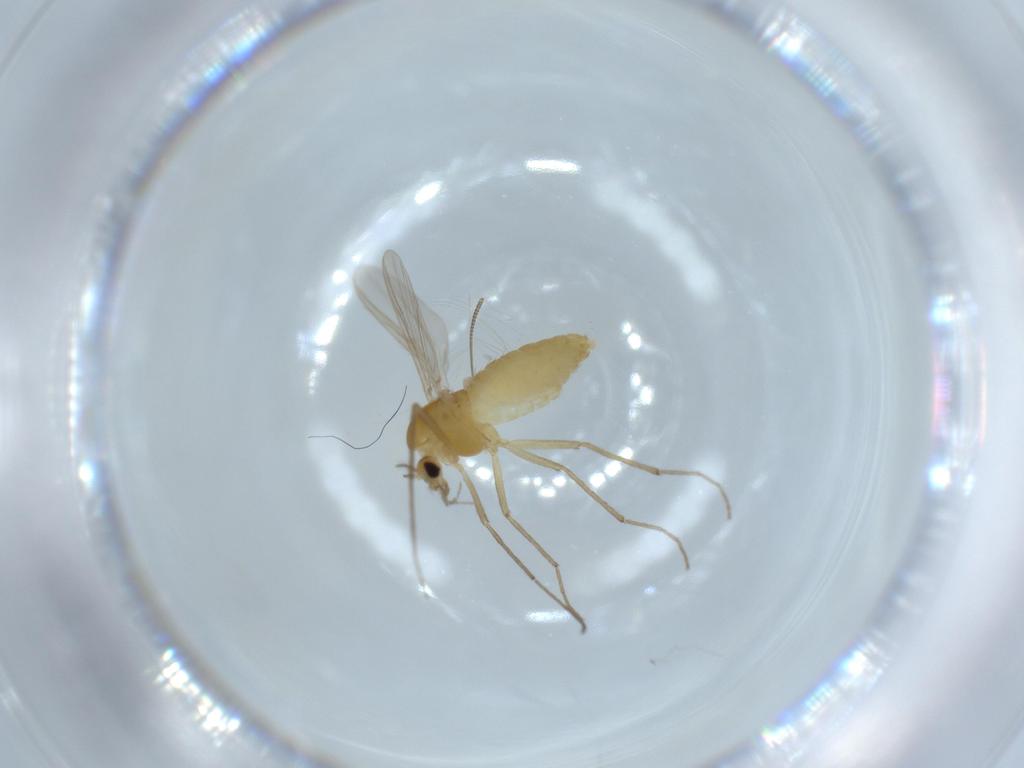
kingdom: Animalia
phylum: Arthropoda
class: Insecta
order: Diptera
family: Chironomidae
